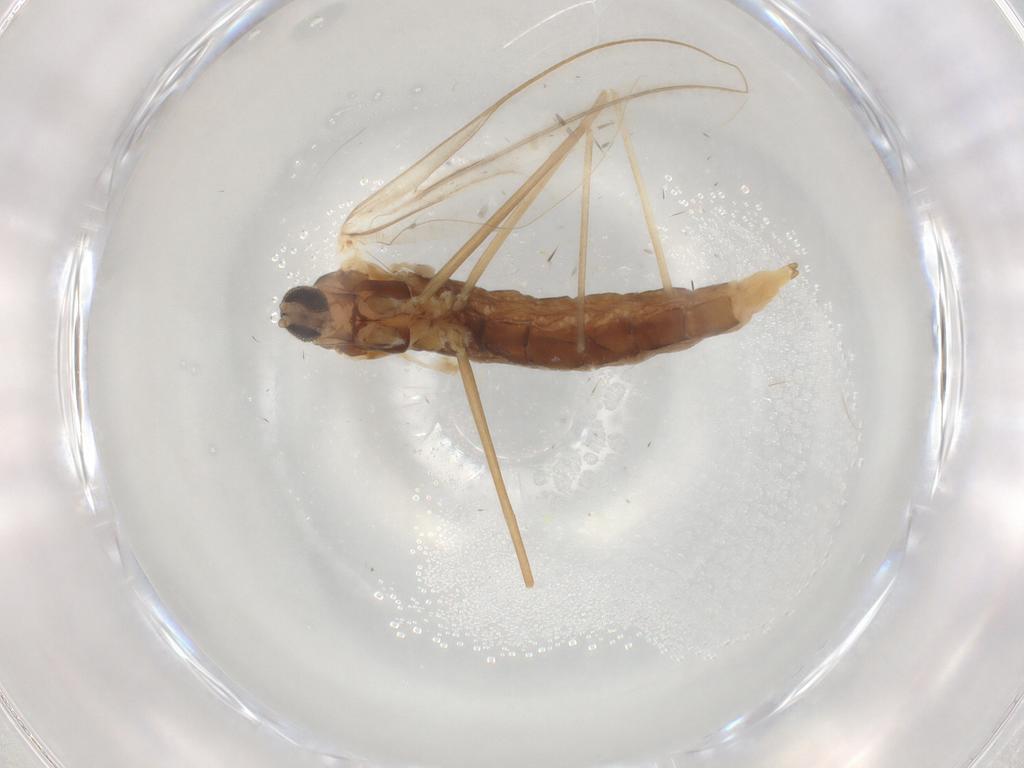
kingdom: Animalia
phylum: Arthropoda
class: Insecta
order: Diptera
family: Cecidomyiidae
